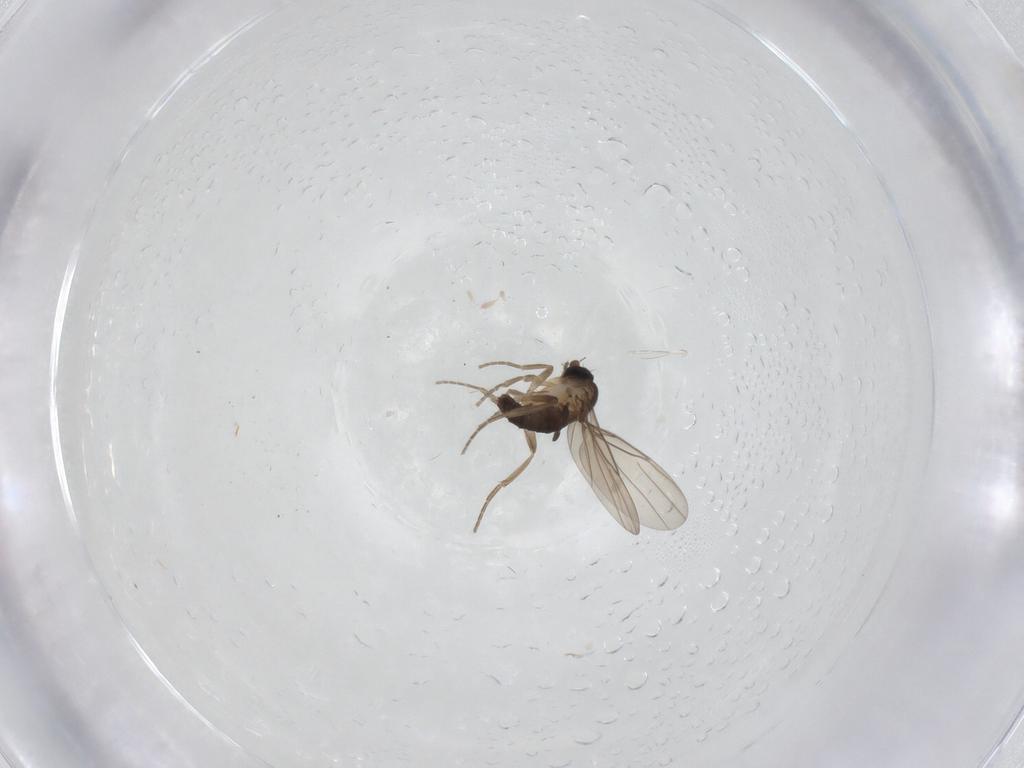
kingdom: Animalia
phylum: Arthropoda
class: Insecta
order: Diptera
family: Phoridae
